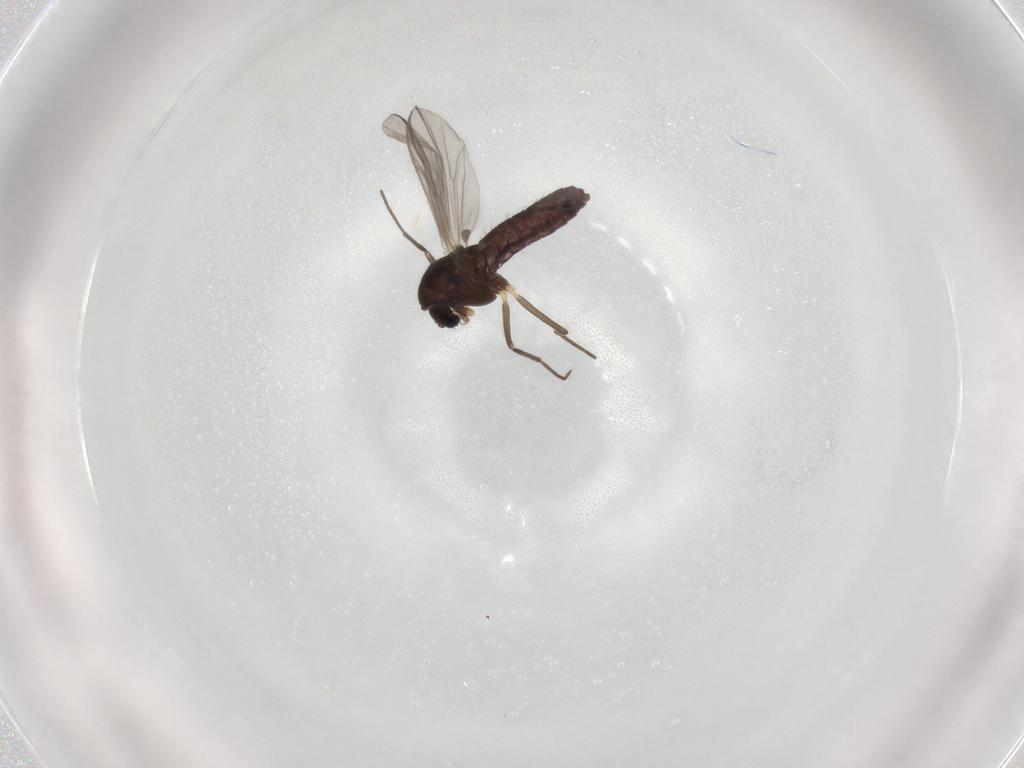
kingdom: Animalia
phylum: Arthropoda
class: Insecta
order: Diptera
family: Chironomidae
